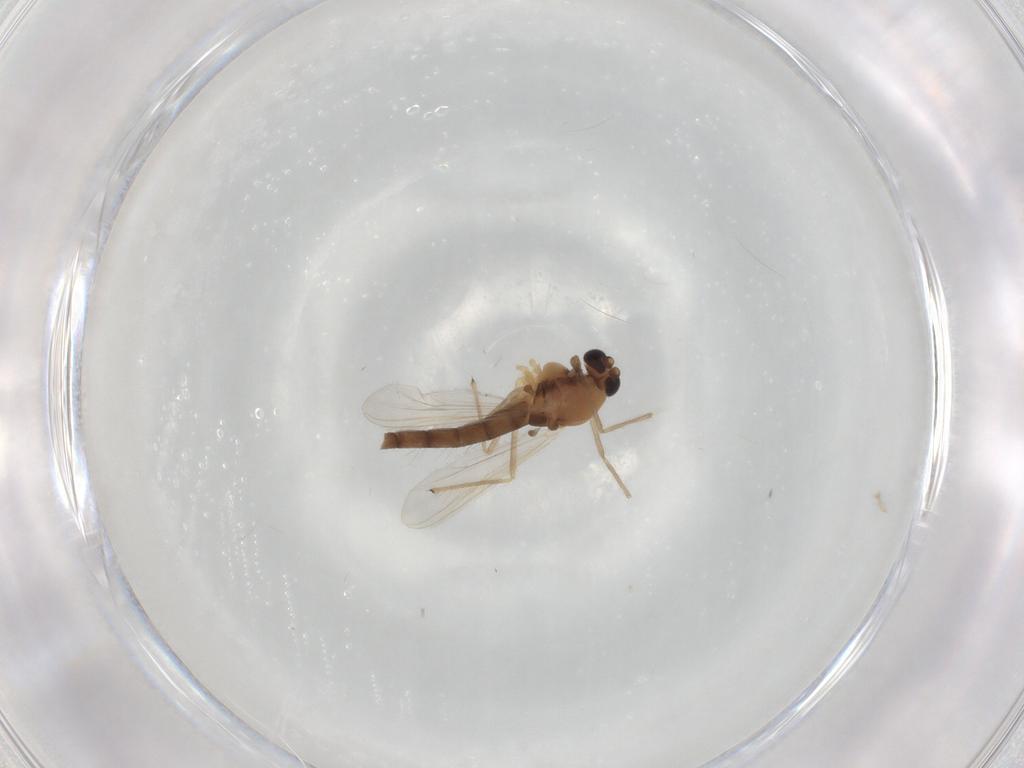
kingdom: Animalia
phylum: Arthropoda
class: Insecta
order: Diptera
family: Chironomidae
